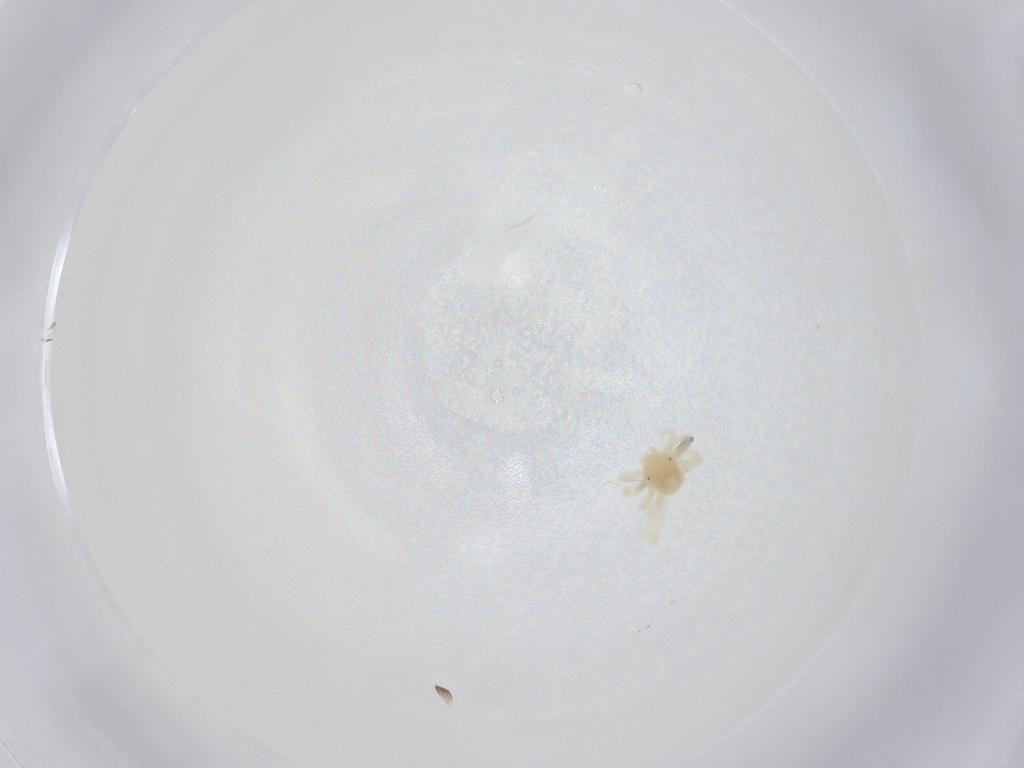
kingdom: Animalia
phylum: Arthropoda
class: Arachnida
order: Trombidiformes
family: Anystidae
